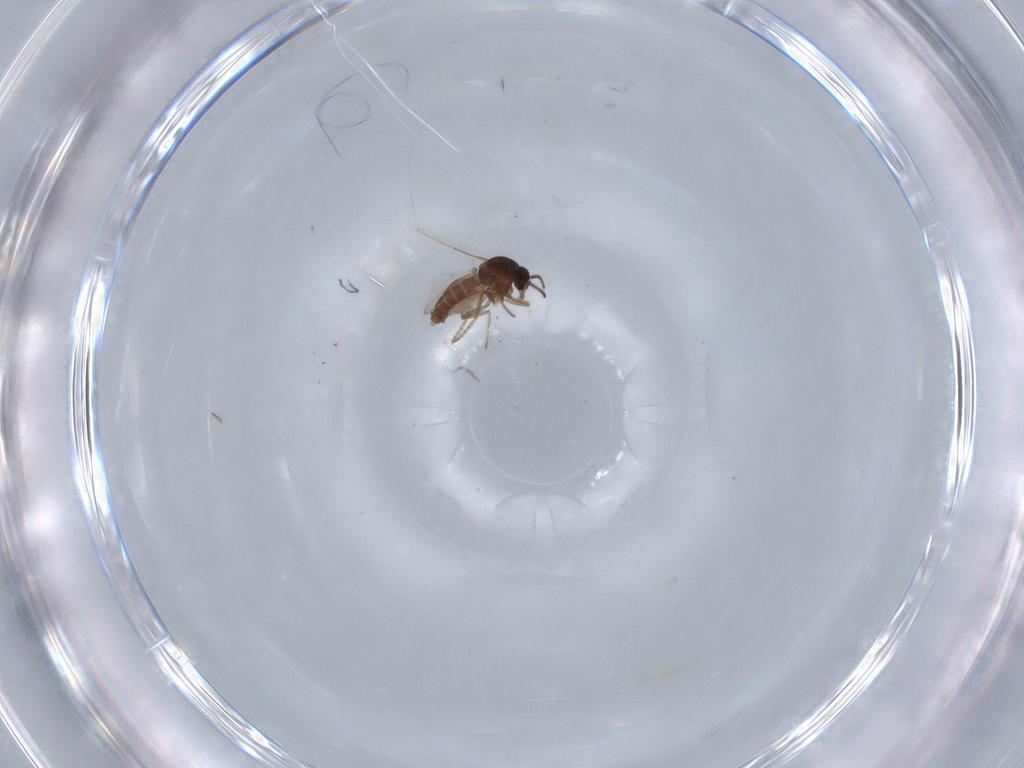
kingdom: Animalia
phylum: Arthropoda
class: Insecta
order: Diptera
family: Ceratopogonidae
